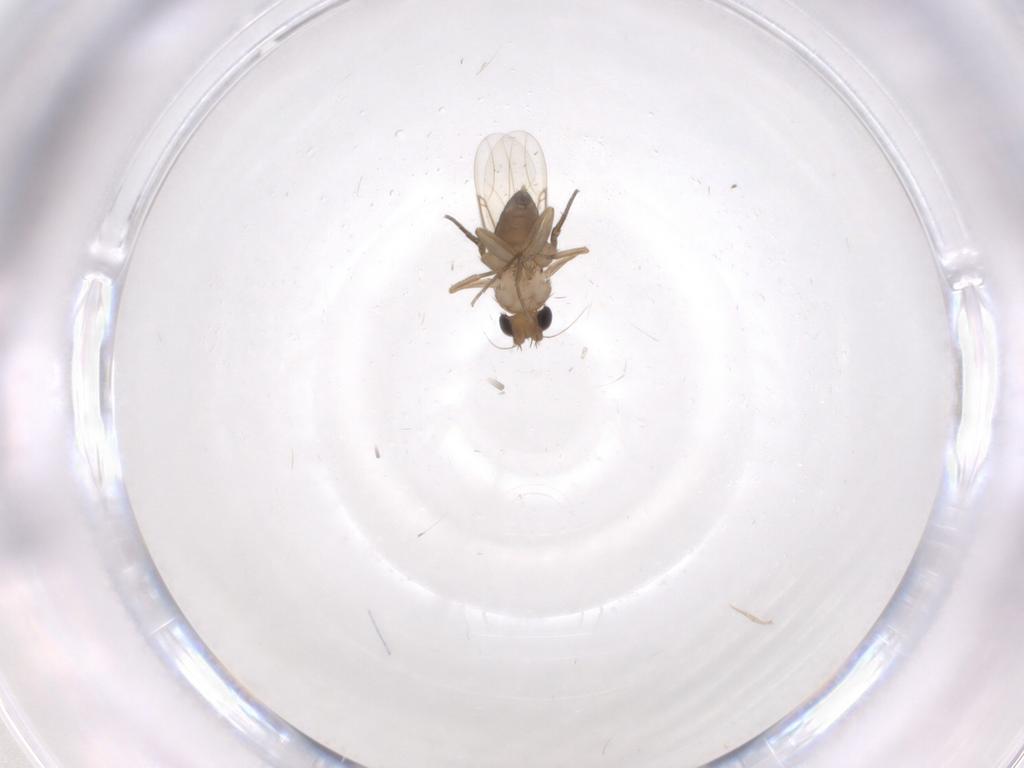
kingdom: Animalia
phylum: Arthropoda
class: Insecta
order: Diptera
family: Phoridae
